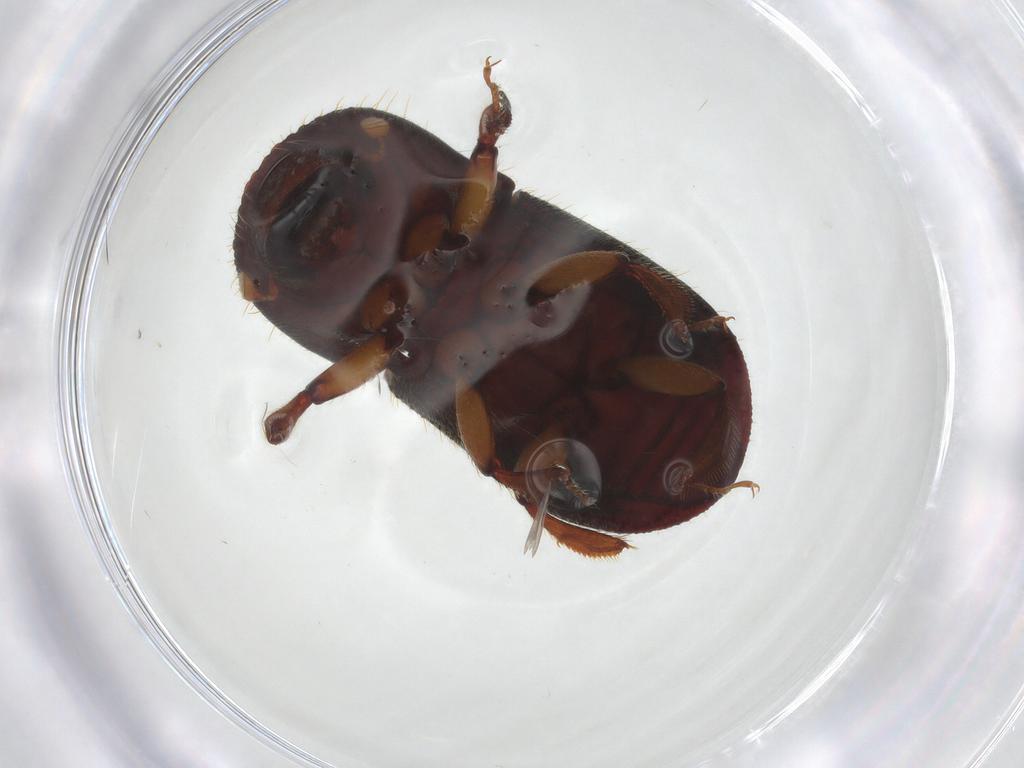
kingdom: Animalia
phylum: Arthropoda
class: Insecta
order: Coleoptera
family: Curculionidae
